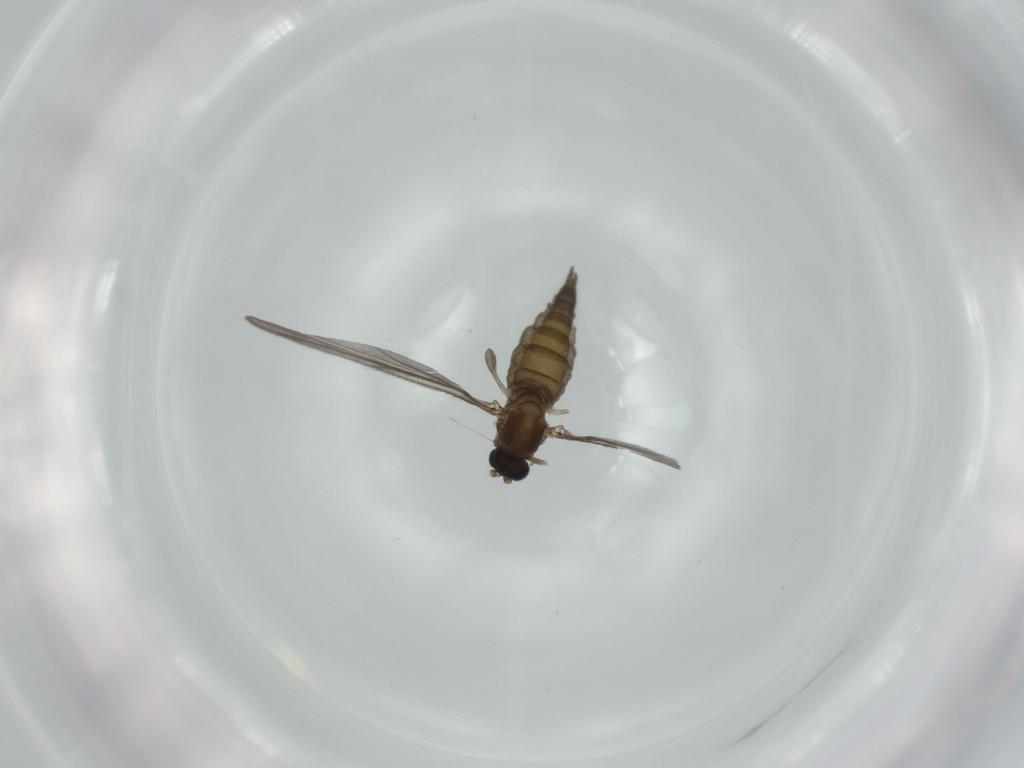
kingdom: Animalia
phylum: Arthropoda
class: Insecta
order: Diptera
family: Sciaridae
